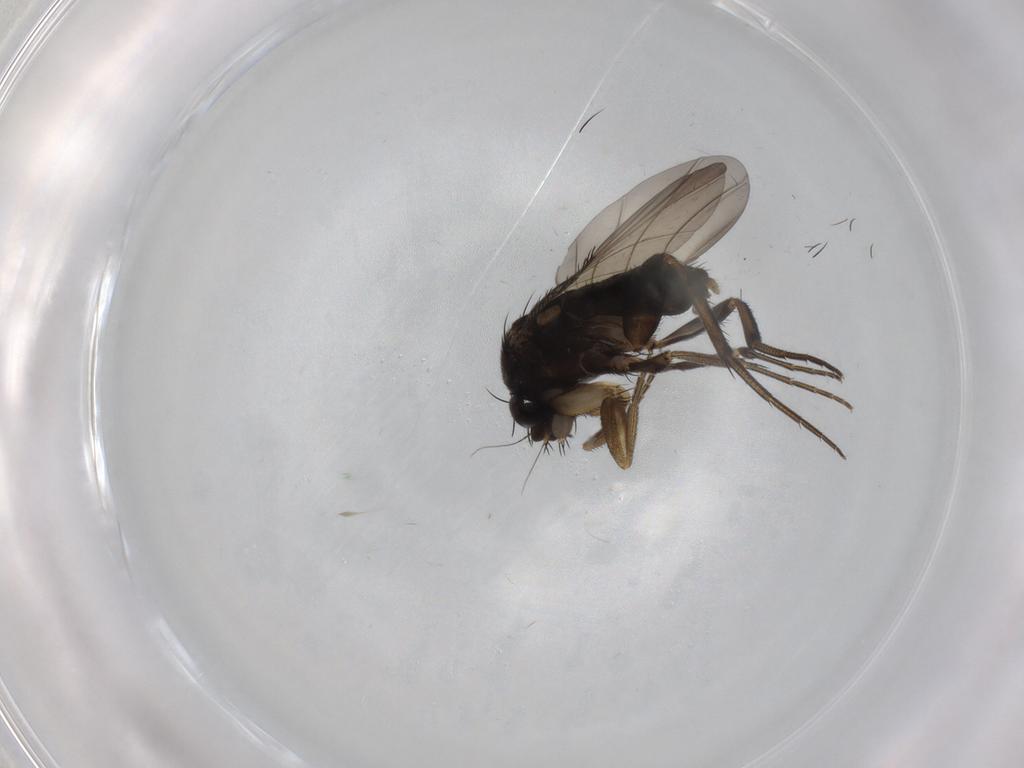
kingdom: Animalia
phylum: Arthropoda
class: Insecta
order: Diptera
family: Phoridae
